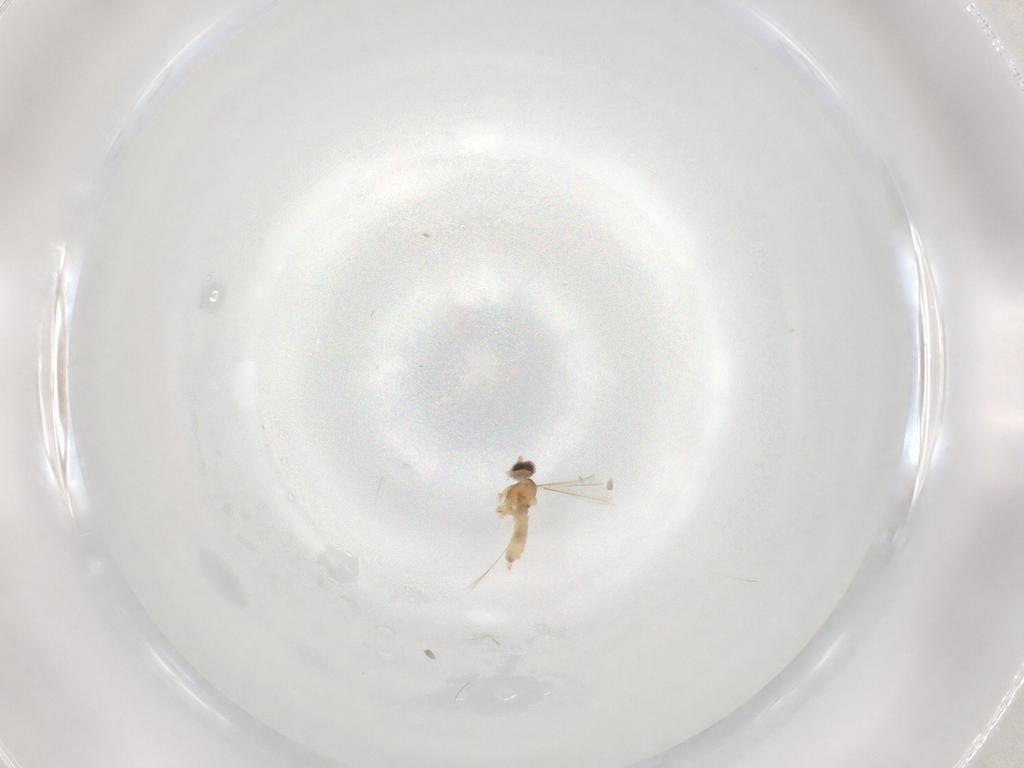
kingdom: Animalia
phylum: Arthropoda
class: Insecta
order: Diptera
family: Cecidomyiidae
